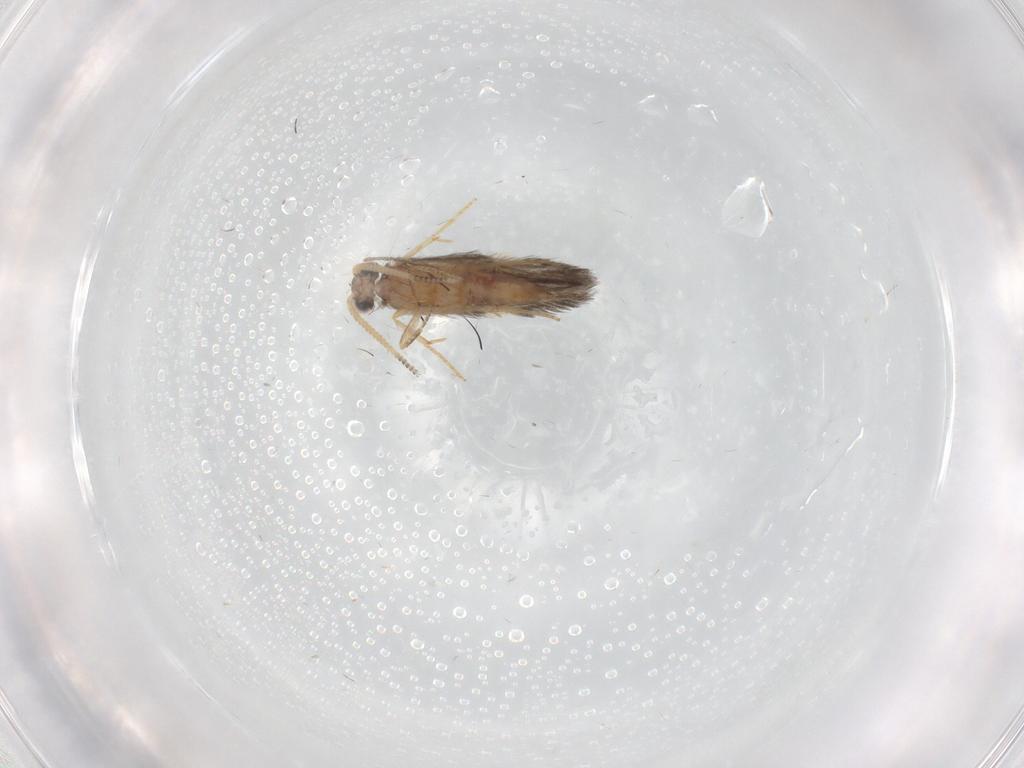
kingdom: Animalia
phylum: Arthropoda
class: Insecta
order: Trichoptera
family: Hydroptilidae
